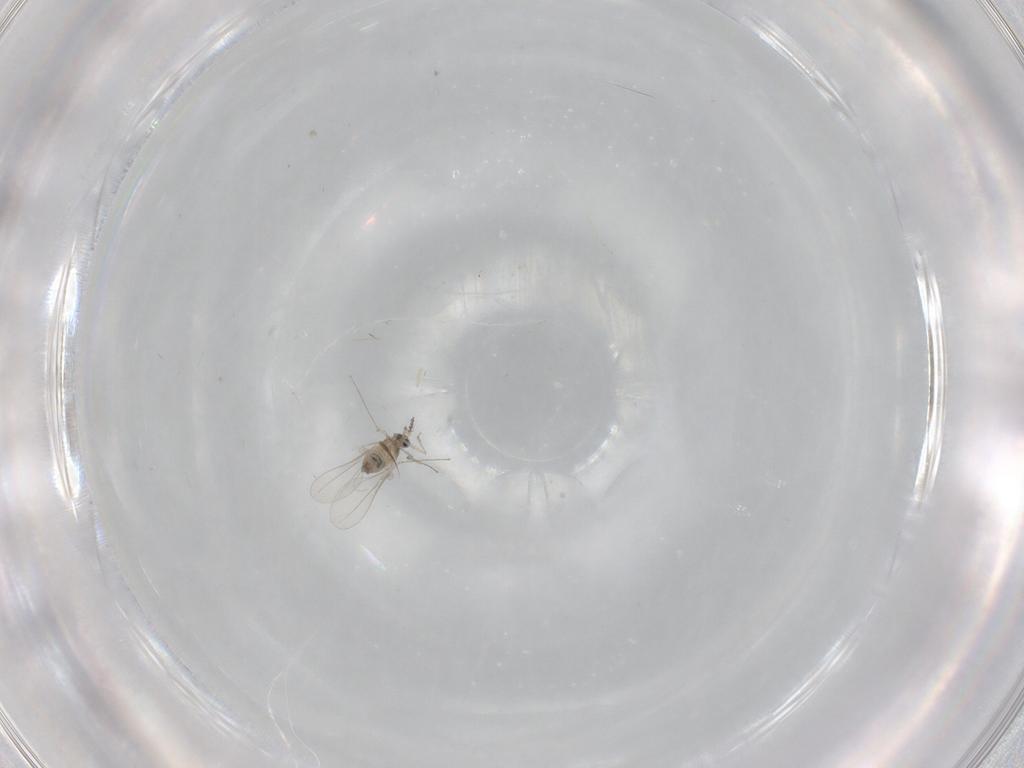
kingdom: Animalia
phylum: Arthropoda
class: Insecta
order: Diptera
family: Cecidomyiidae
